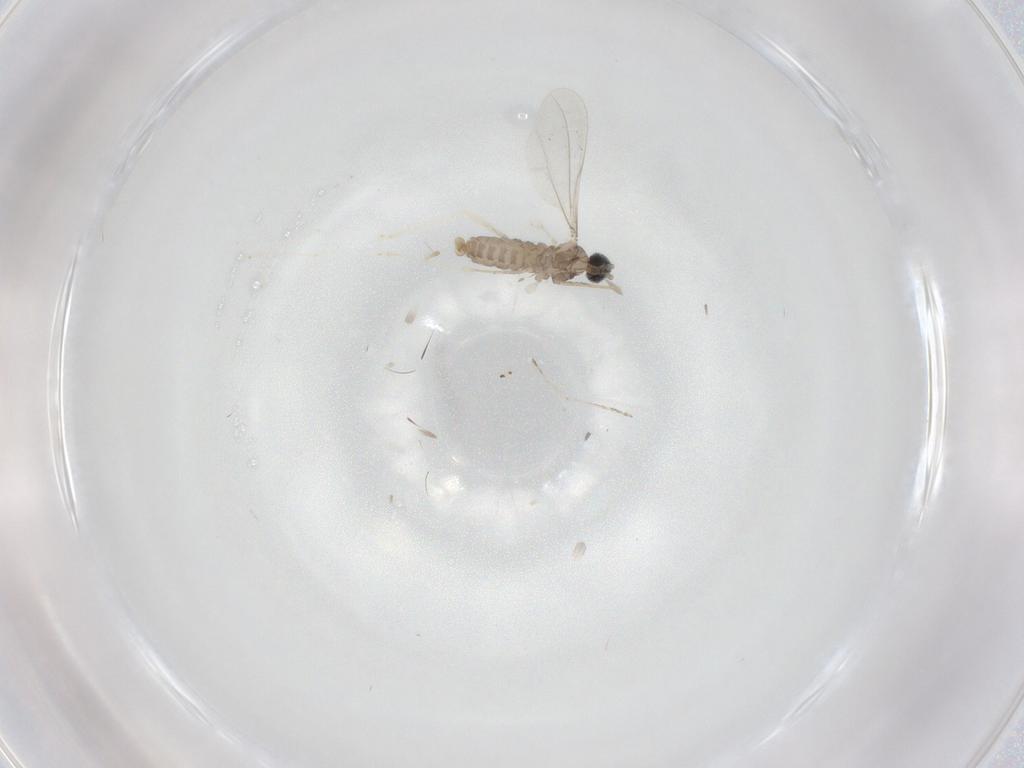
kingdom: Animalia
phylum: Arthropoda
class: Insecta
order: Diptera
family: Cecidomyiidae
